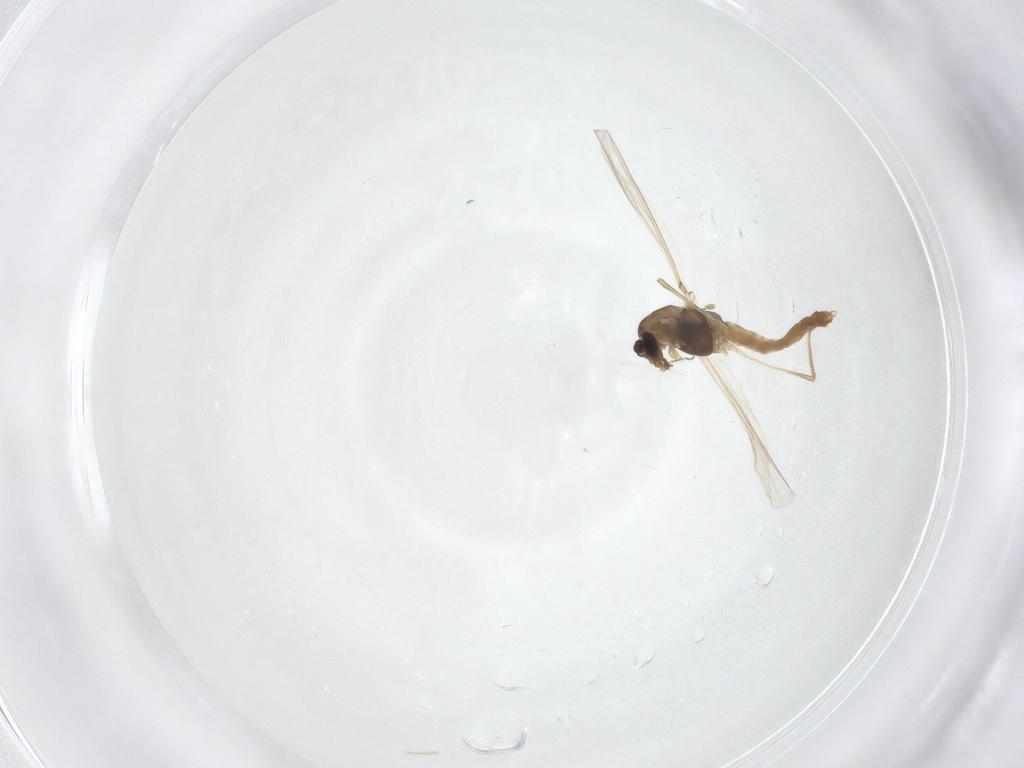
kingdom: Animalia
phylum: Arthropoda
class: Insecta
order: Diptera
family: Chironomidae
